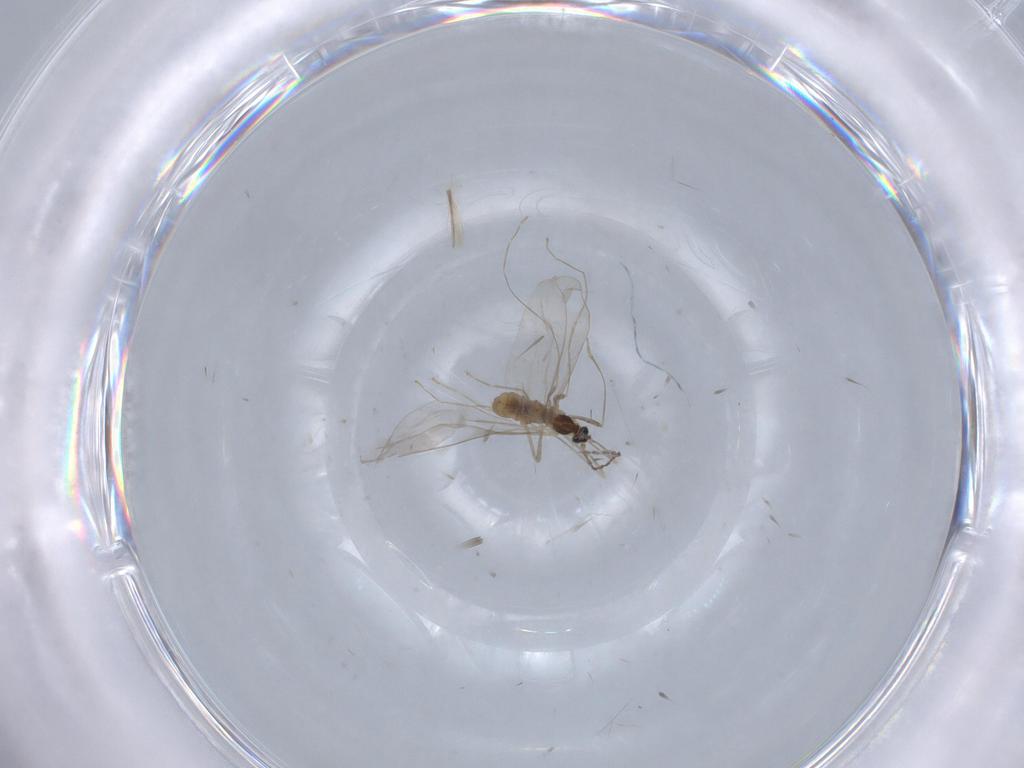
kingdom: Animalia
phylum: Arthropoda
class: Insecta
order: Diptera
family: Cecidomyiidae
